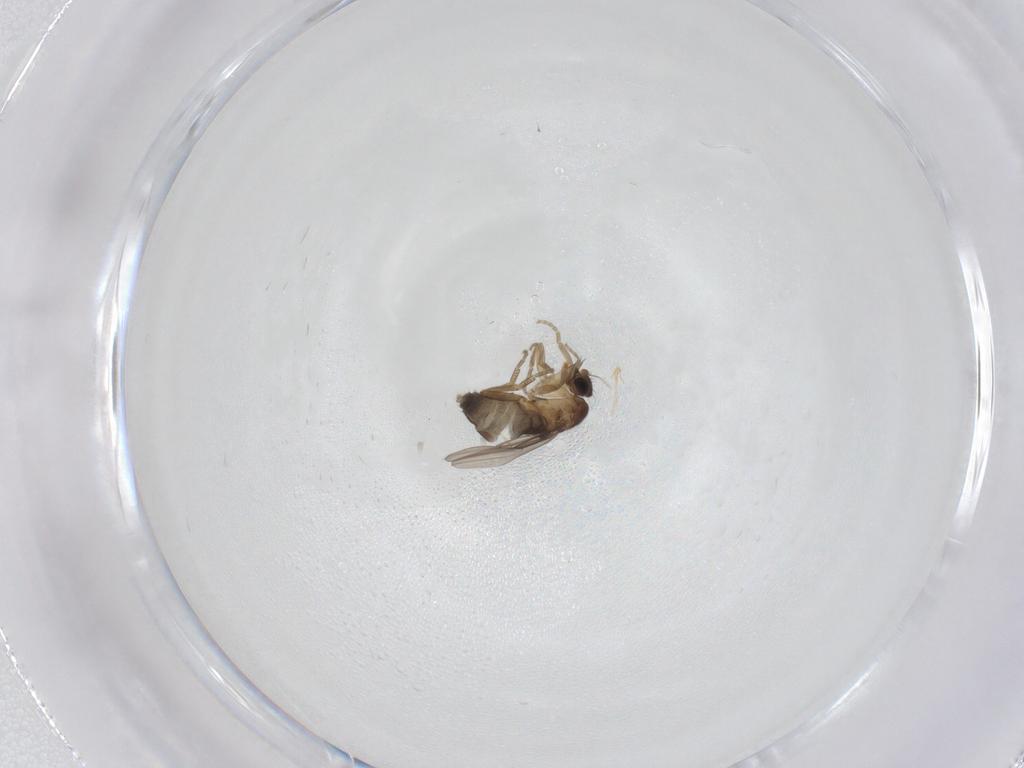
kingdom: Animalia
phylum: Arthropoda
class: Insecta
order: Diptera
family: Phoridae
